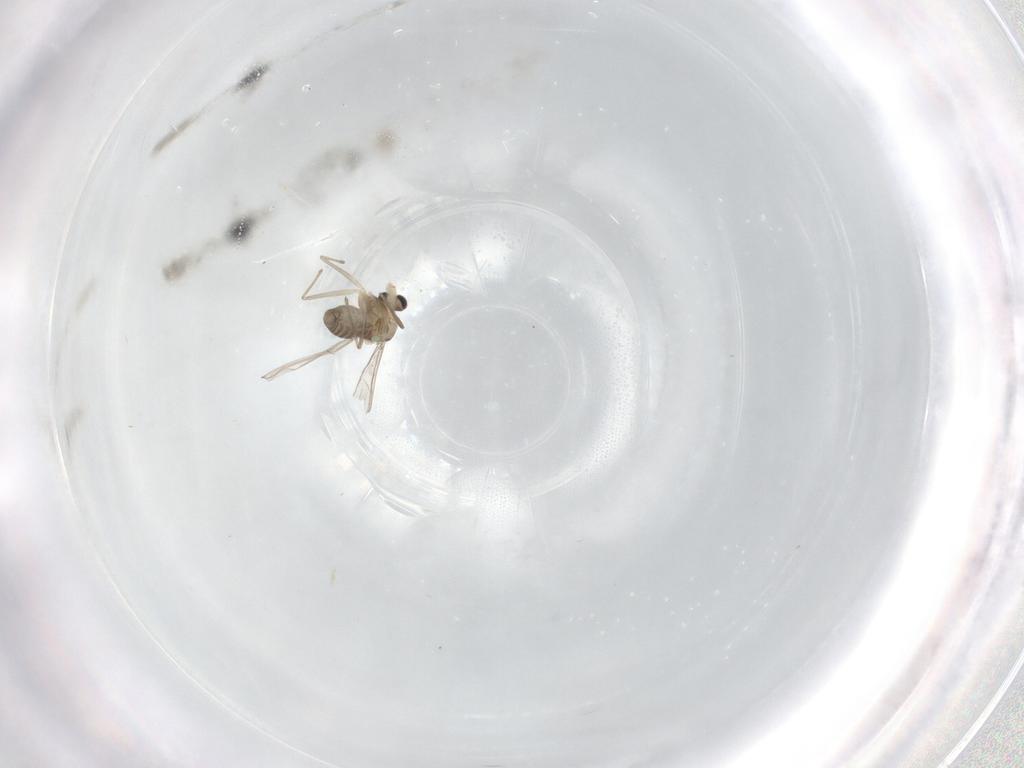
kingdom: Animalia
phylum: Arthropoda
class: Insecta
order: Diptera
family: Chironomidae
